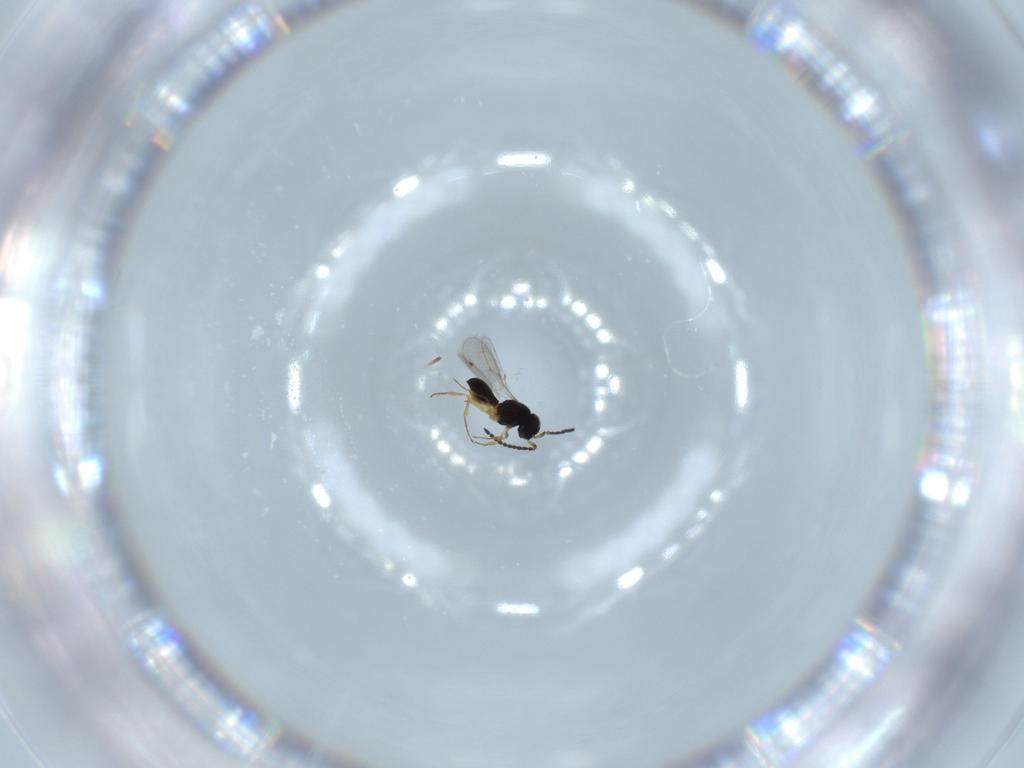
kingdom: Animalia
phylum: Arthropoda
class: Insecta
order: Hymenoptera
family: Scelionidae
